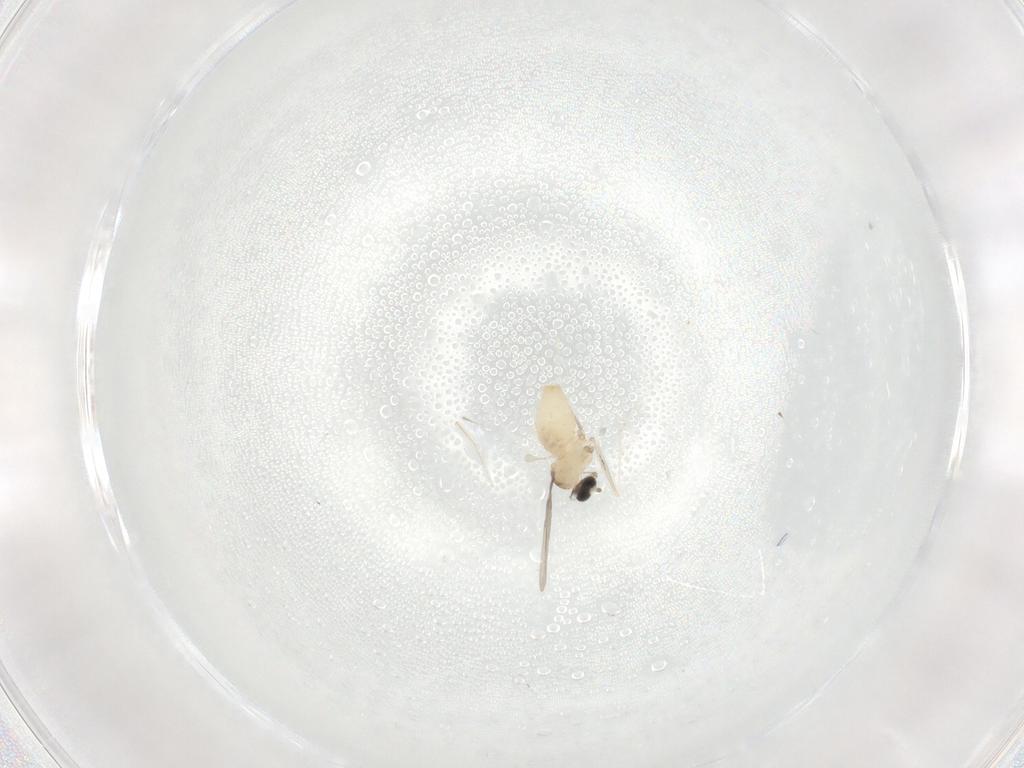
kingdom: Animalia
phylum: Arthropoda
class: Insecta
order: Diptera
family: Cecidomyiidae
